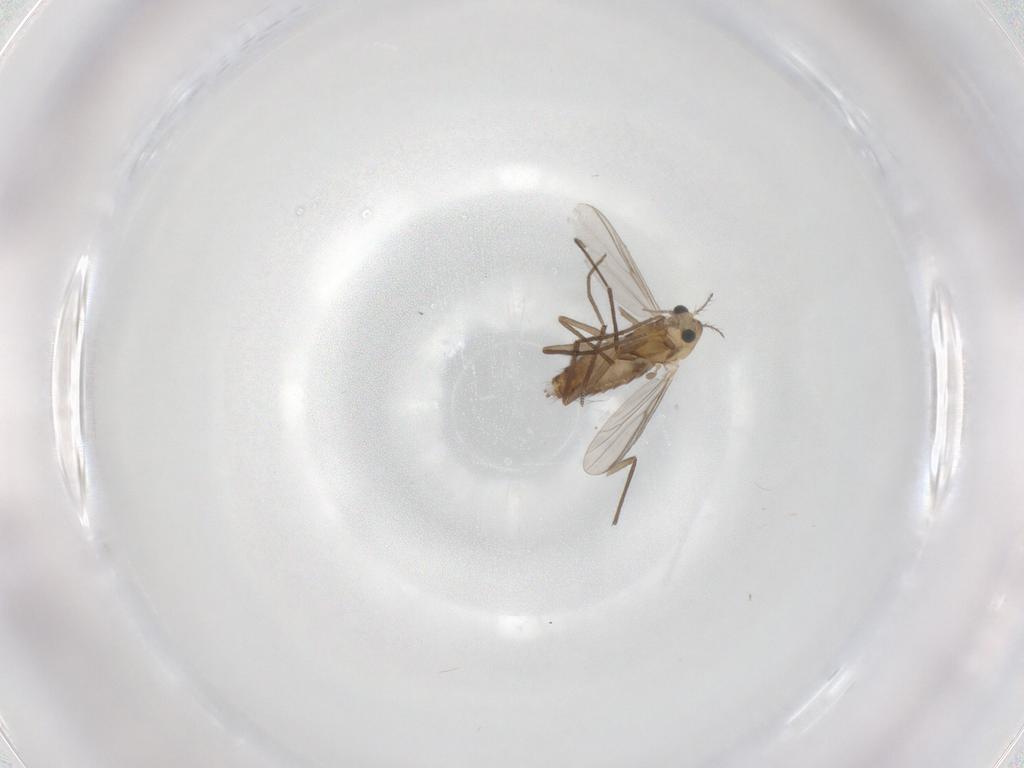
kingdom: Animalia
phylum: Arthropoda
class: Insecta
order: Diptera
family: Chironomidae
